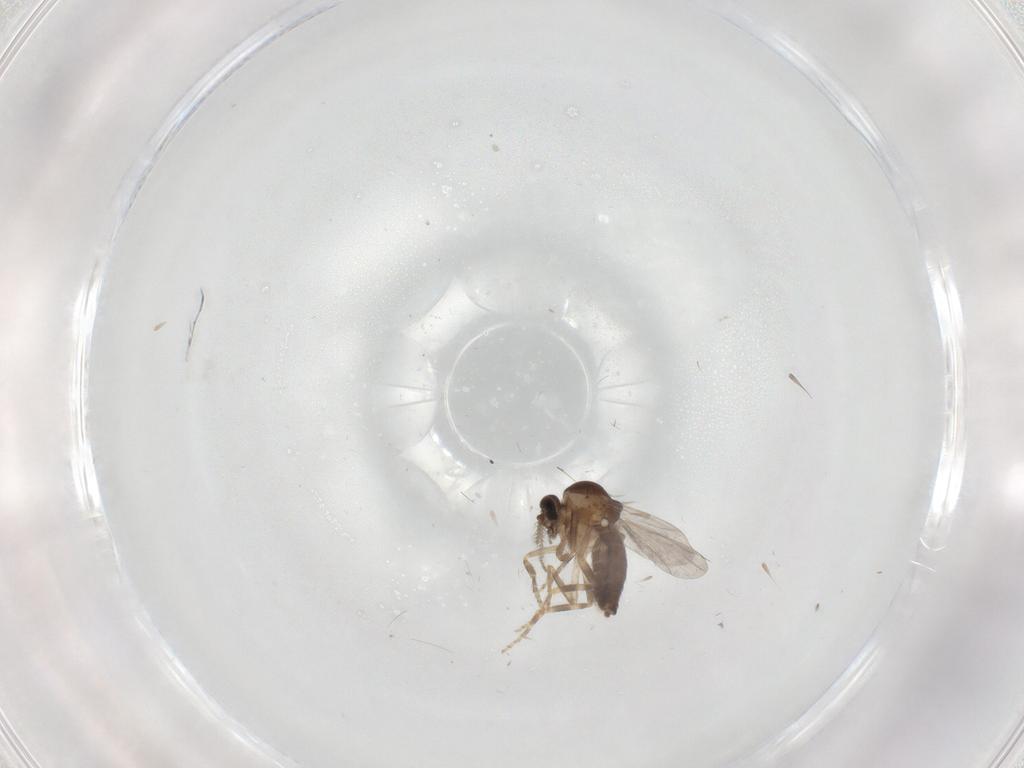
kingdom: Animalia
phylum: Arthropoda
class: Insecta
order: Diptera
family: Ceratopogonidae
